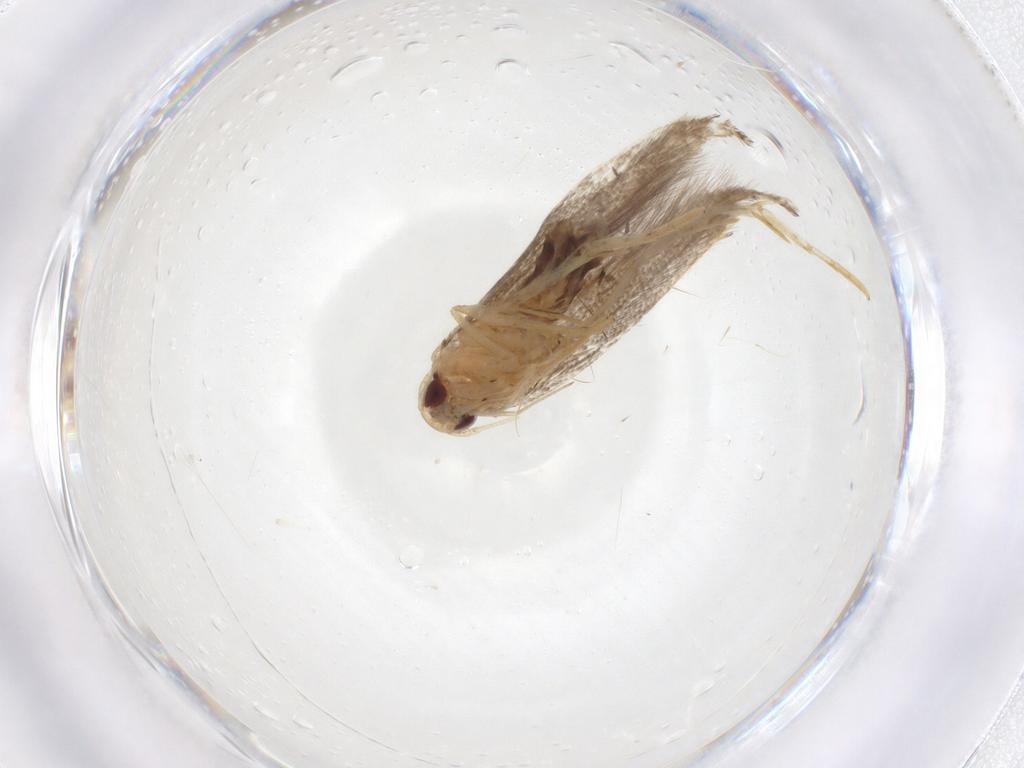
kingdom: Animalia
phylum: Arthropoda
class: Insecta
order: Lepidoptera
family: Cosmopterigidae
